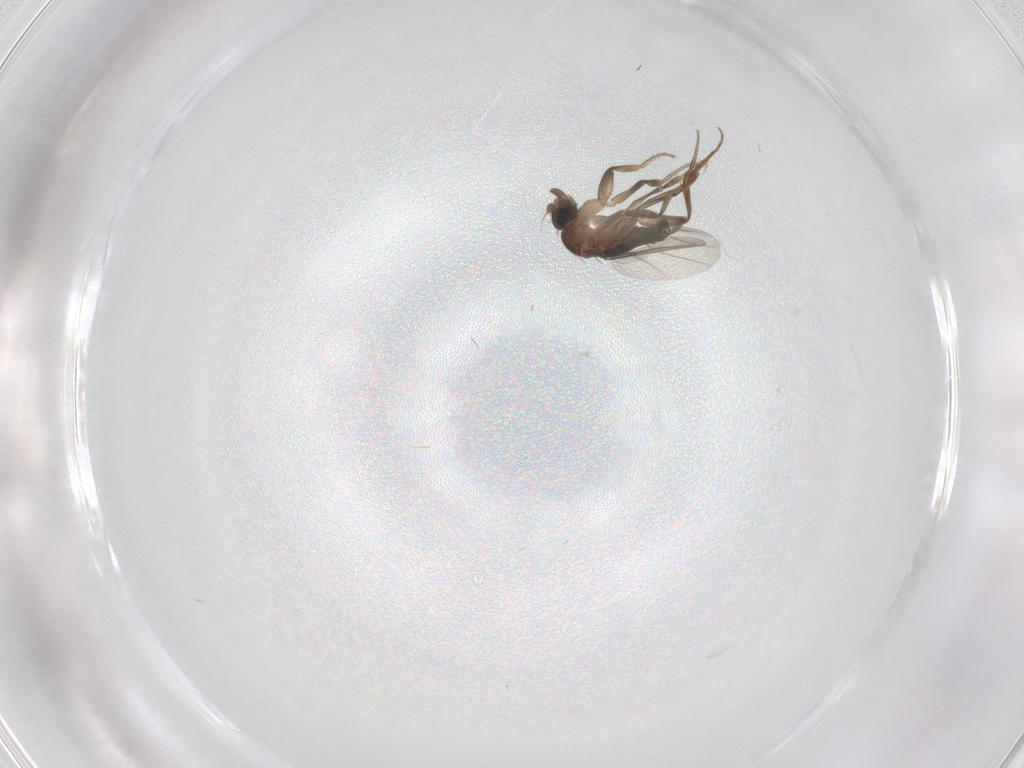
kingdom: Animalia
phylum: Arthropoda
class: Insecta
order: Diptera
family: Phoridae
